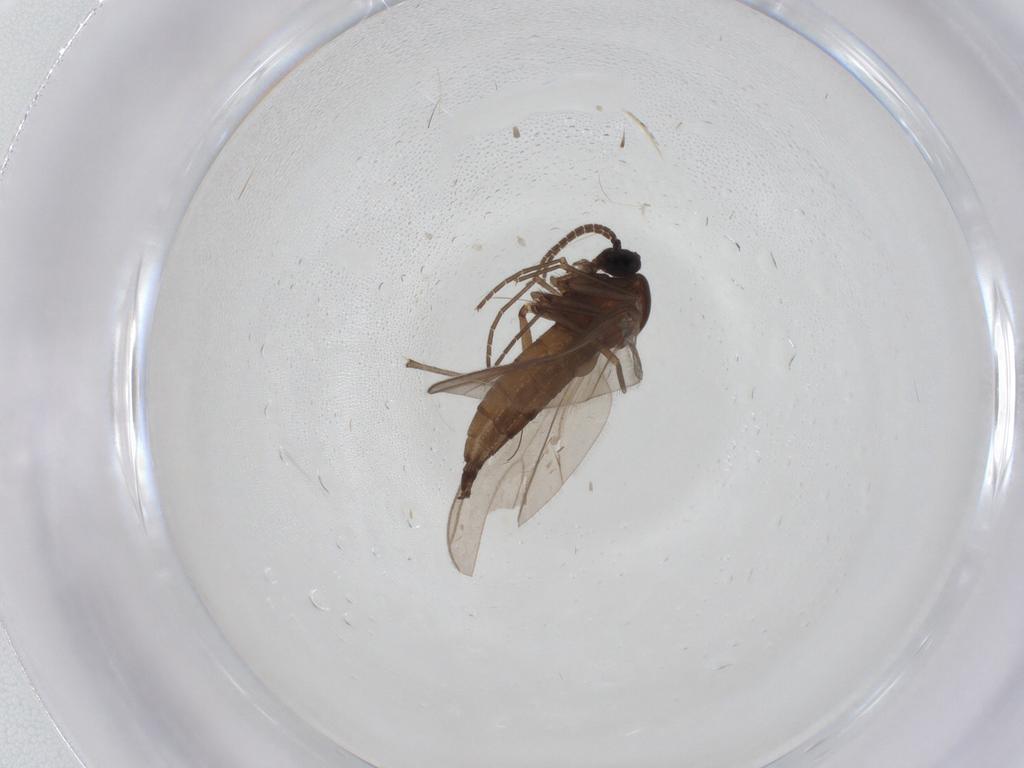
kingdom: Animalia
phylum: Arthropoda
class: Insecta
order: Diptera
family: Sciaridae
